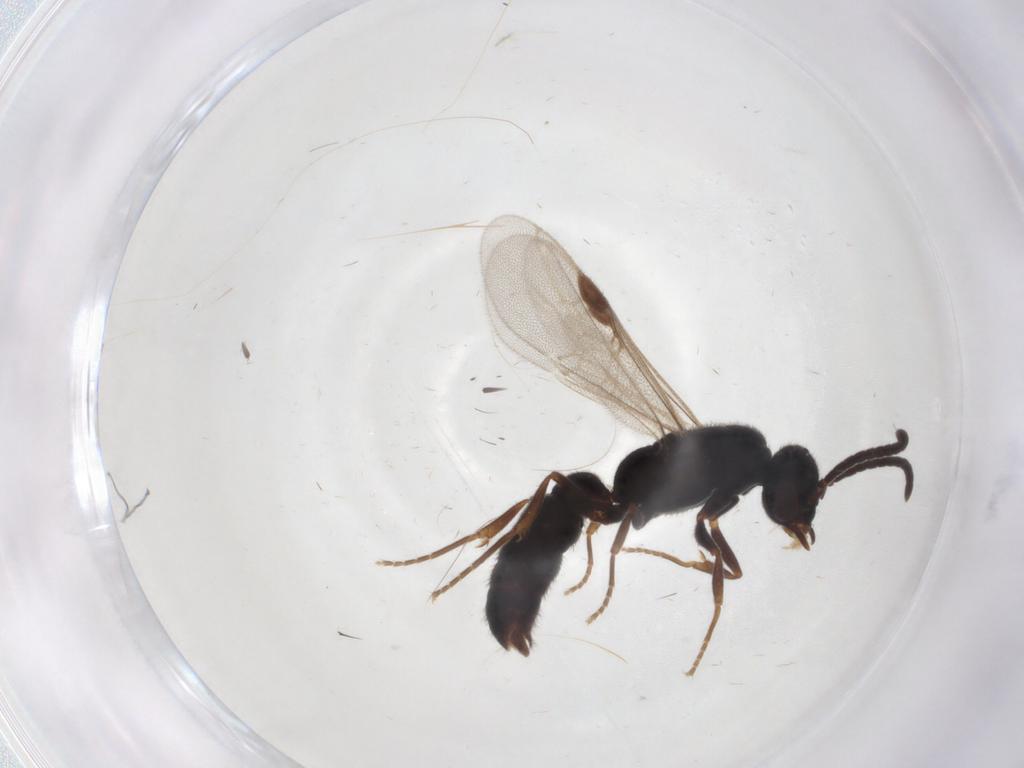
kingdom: Animalia
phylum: Arthropoda
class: Insecta
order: Hymenoptera
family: Formicidae
